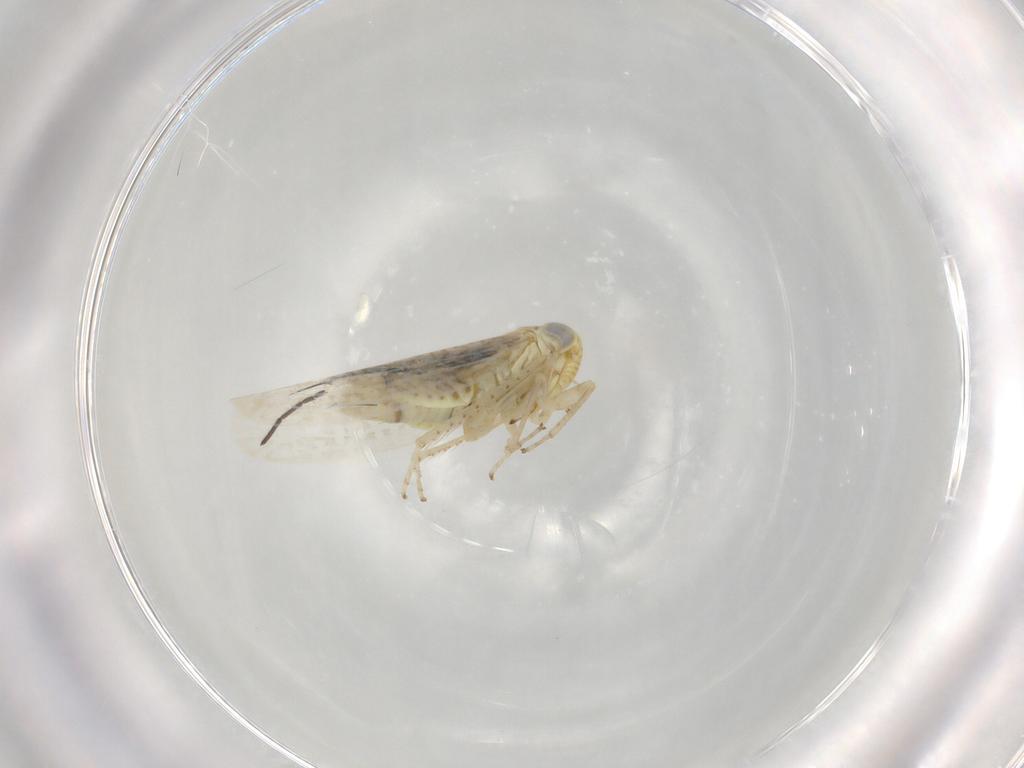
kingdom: Animalia
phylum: Arthropoda
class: Insecta
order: Hemiptera
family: Cicadellidae
